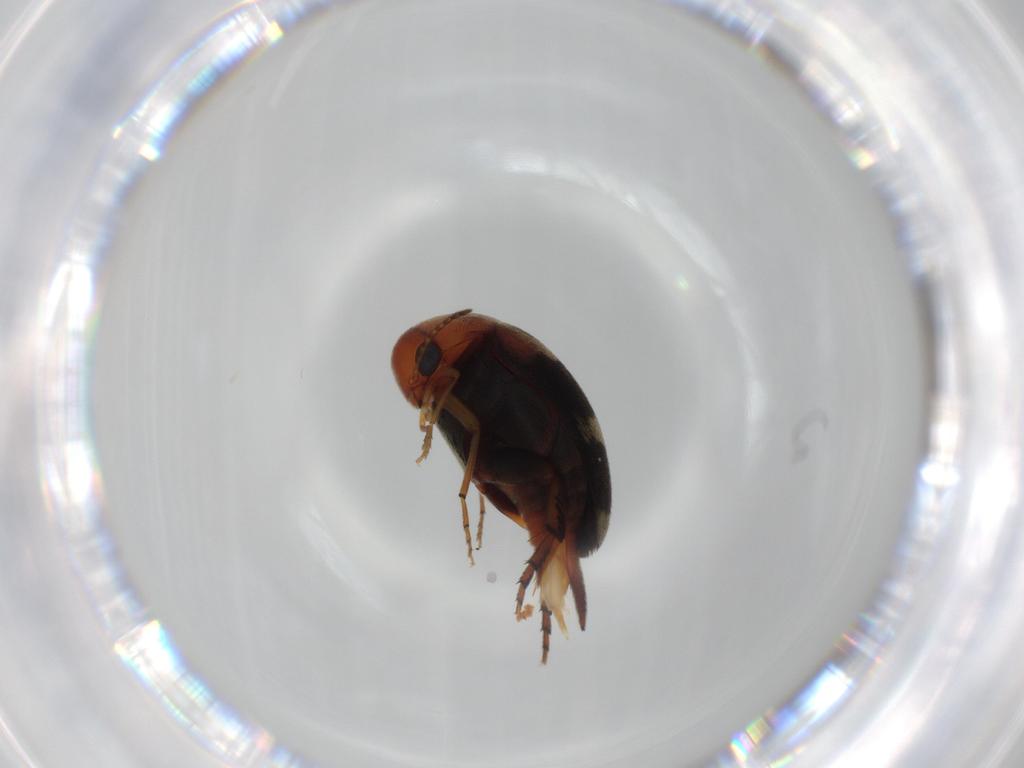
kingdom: Animalia
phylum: Arthropoda
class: Insecta
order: Coleoptera
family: Mordellidae
